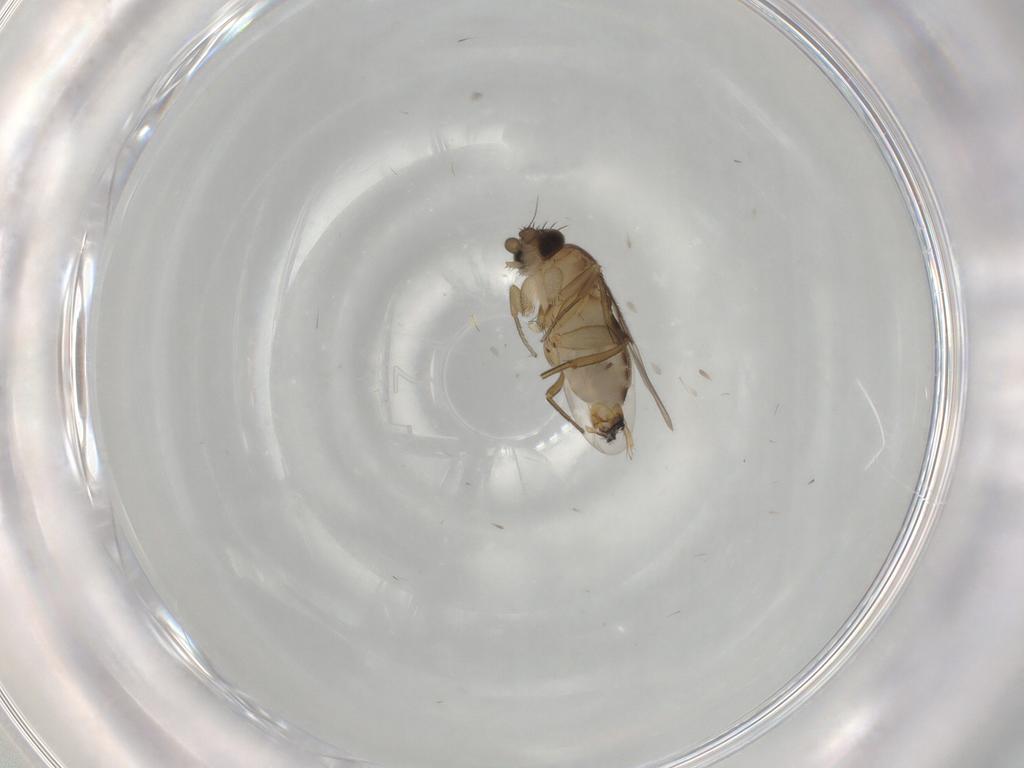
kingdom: Animalia
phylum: Arthropoda
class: Insecta
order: Diptera
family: Phoridae
